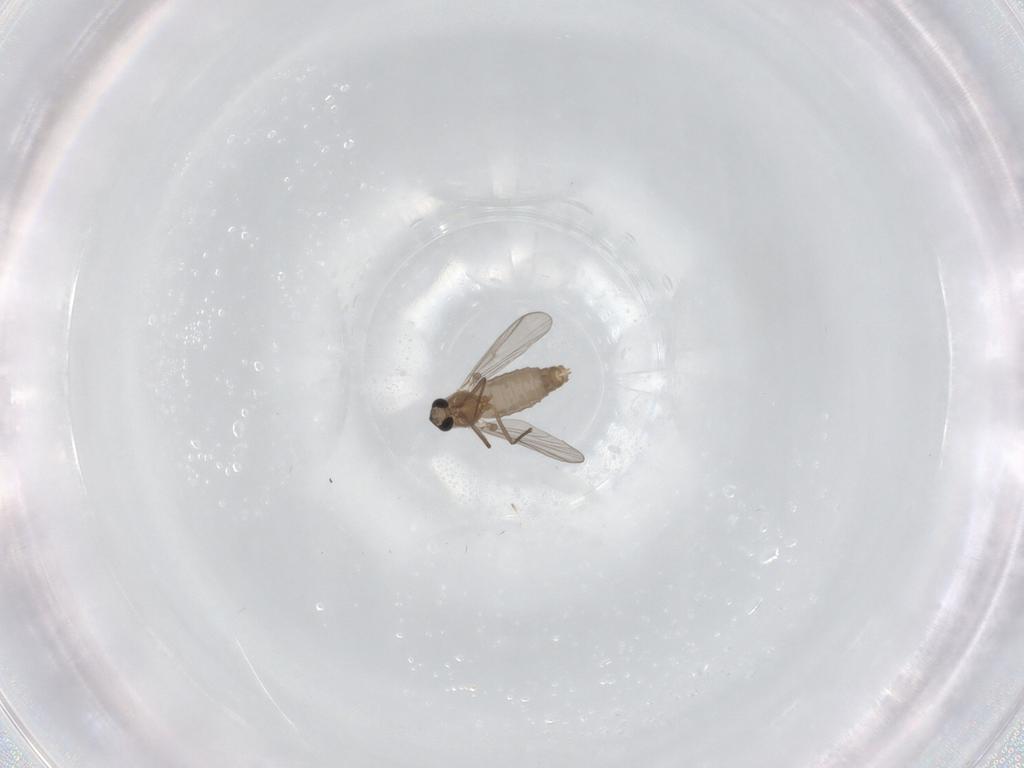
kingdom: Animalia
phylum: Arthropoda
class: Insecta
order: Diptera
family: Chironomidae
